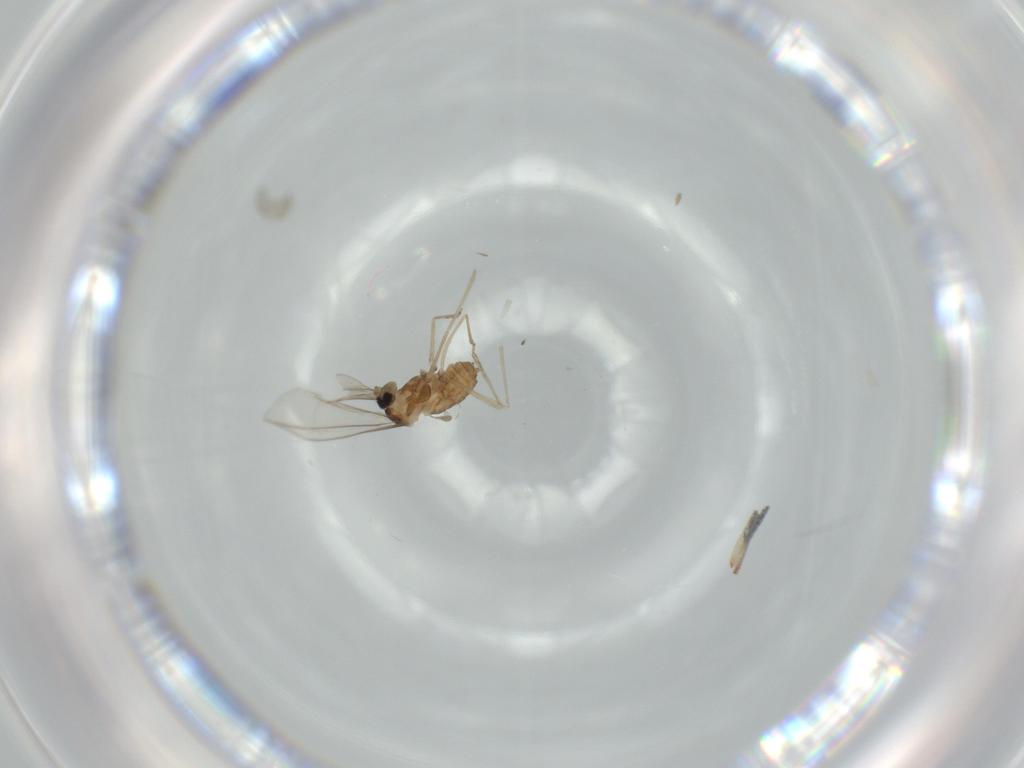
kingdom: Animalia
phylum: Arthropoda
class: Insecta
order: Diptera
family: Cecidomyiidae
